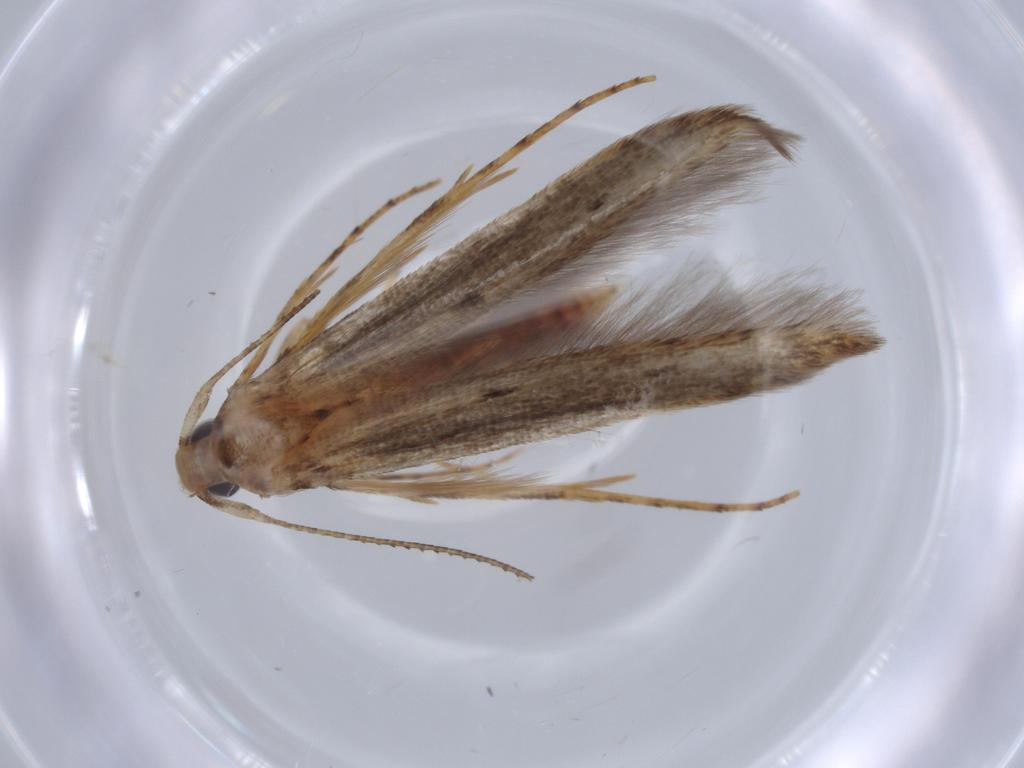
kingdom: Animalia
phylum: Arthropoda
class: Insecta
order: Lepidoptera
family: Heliodinidae
